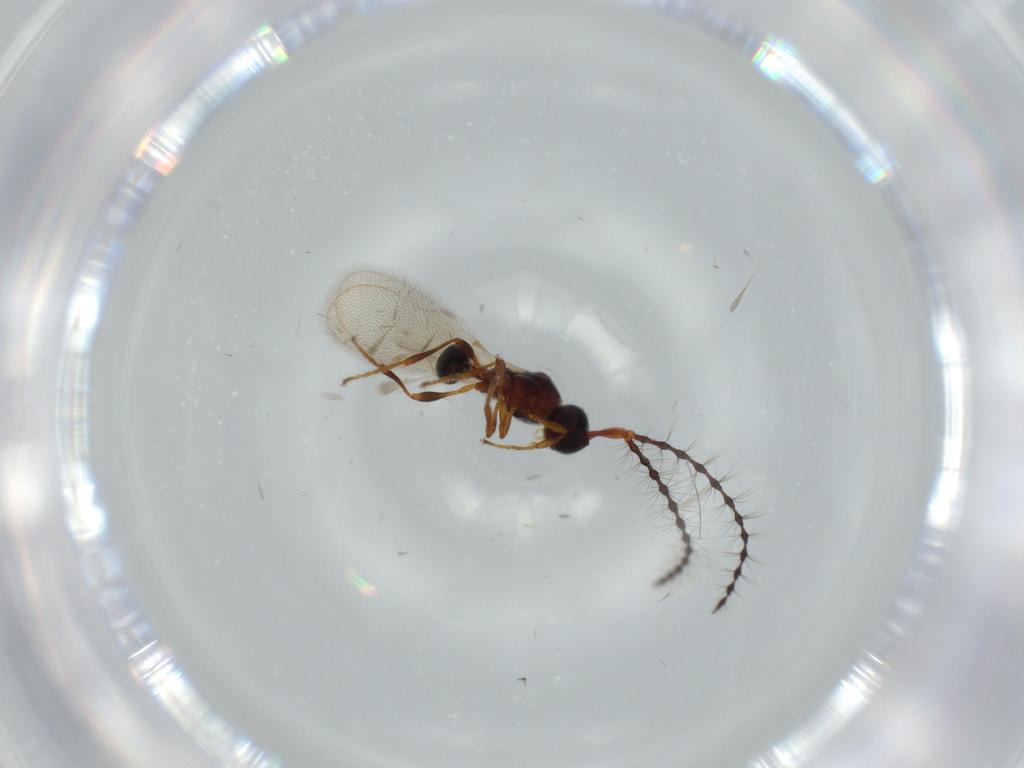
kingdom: Animalia
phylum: Arthropoda
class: Insecta
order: Hymenoptera
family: Diapriidae
